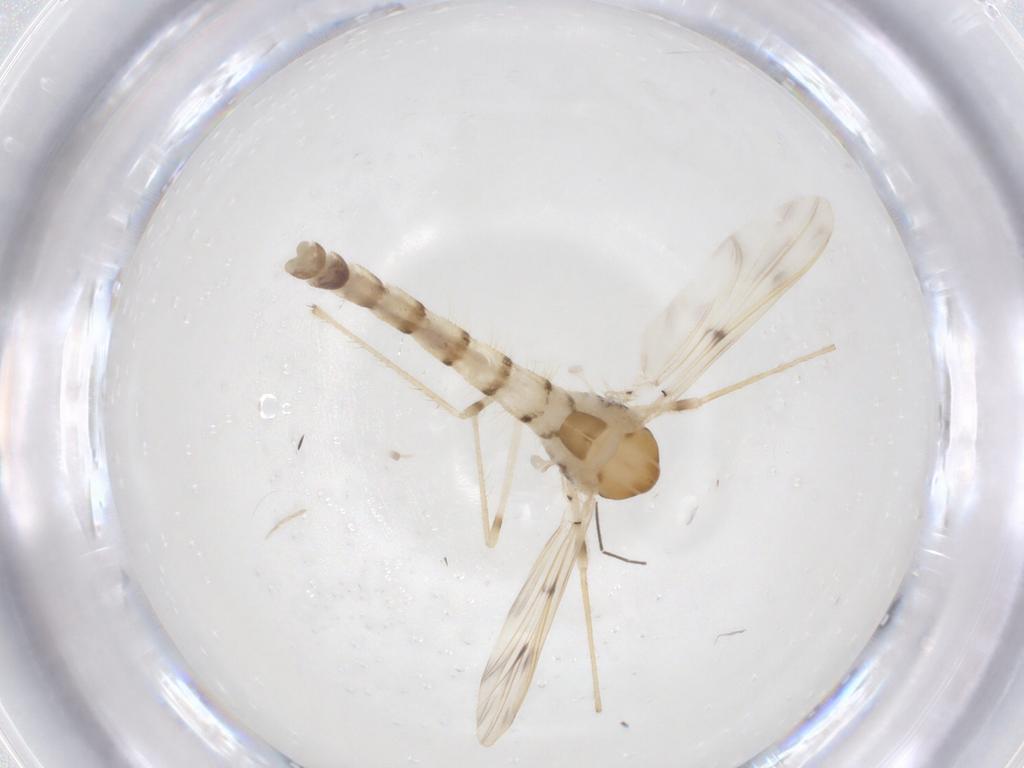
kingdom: Animalia
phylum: Arthropoda
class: Insecta
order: Diptera
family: Chironomidae
